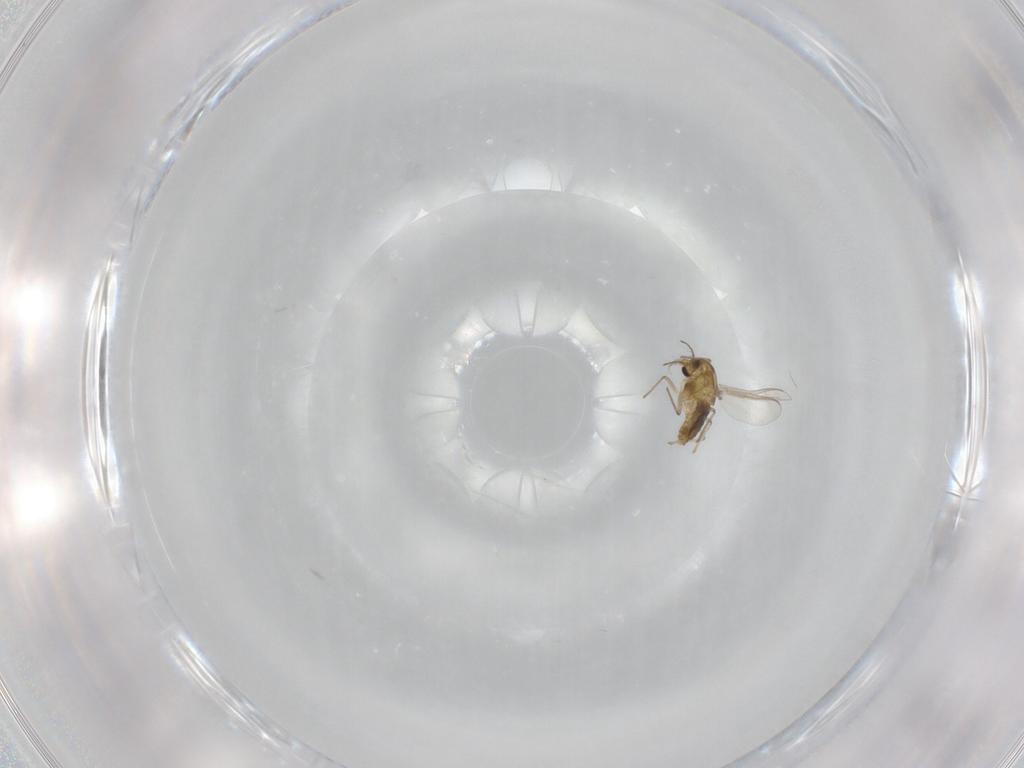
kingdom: Animalia
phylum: Arthropoda
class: Insecta
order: Diptera
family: Chironomidae
